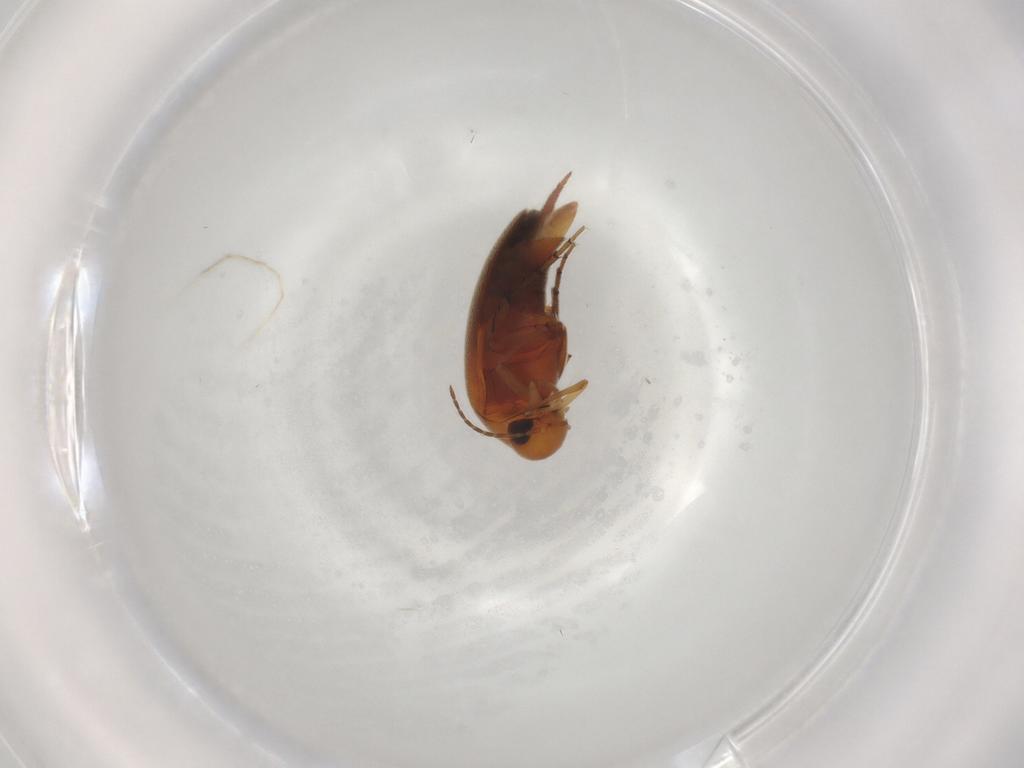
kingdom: Animalia
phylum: Arthropoda
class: Insecta
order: Coleoptera
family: Mordellidae
